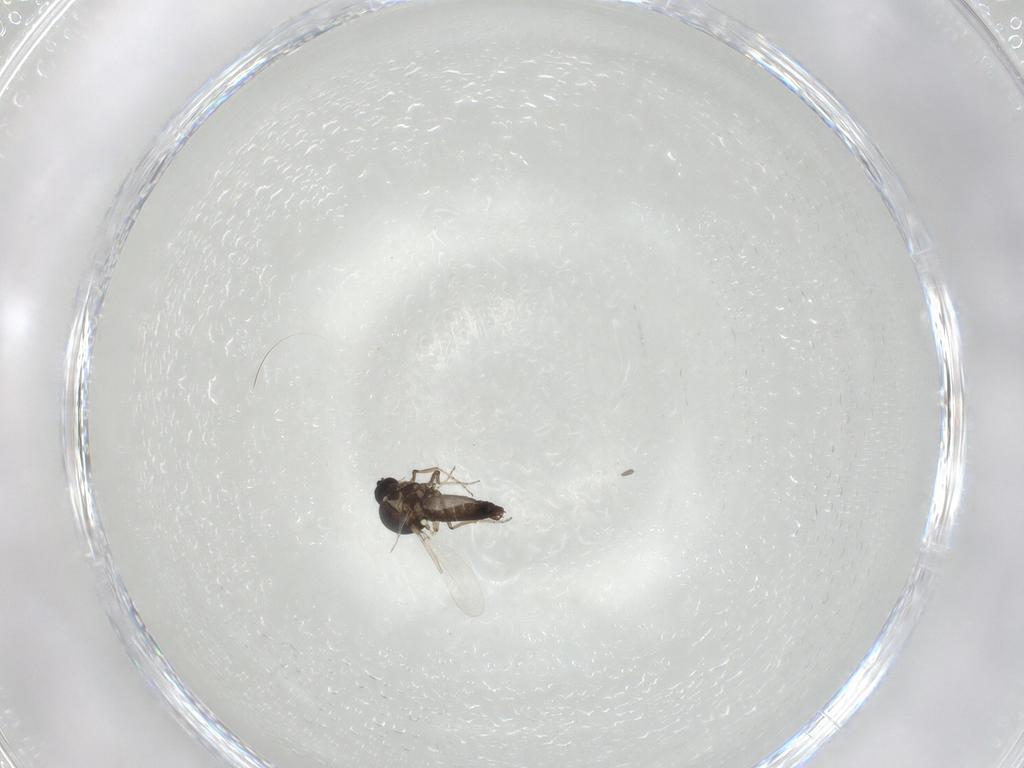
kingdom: Animalia
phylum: Arthropoda
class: Insecta
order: Diptera
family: Ceratopogonidae
